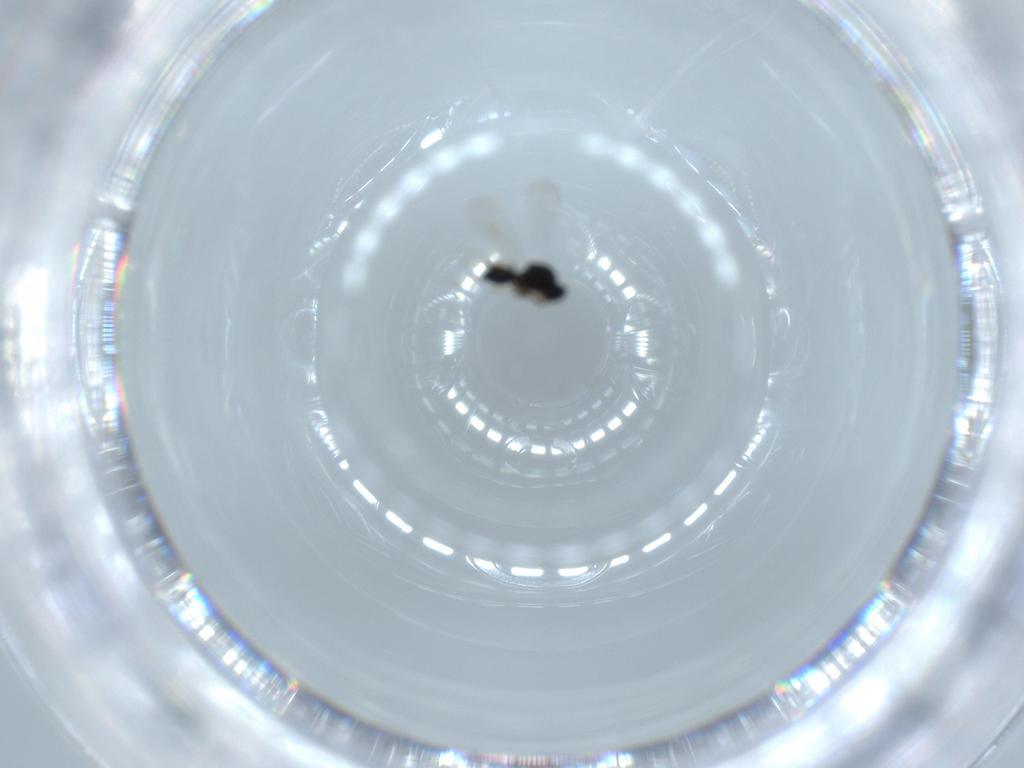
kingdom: Animalia
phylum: Arthropoda
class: Insecta
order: Hymenoptera
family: Platygastridae
